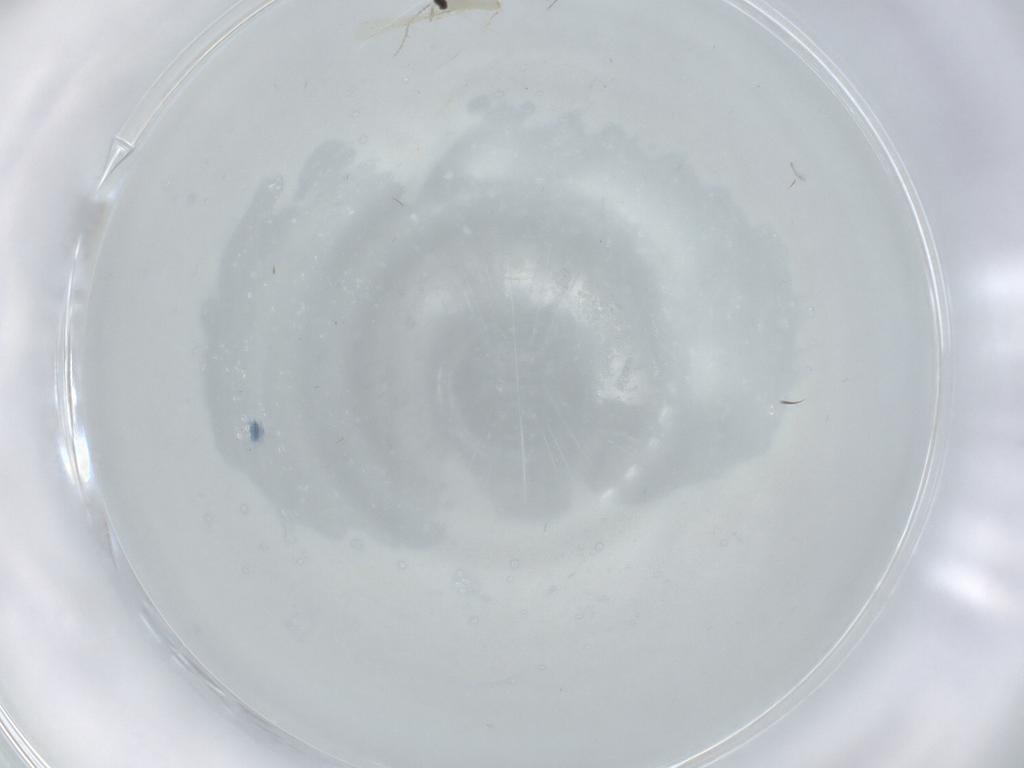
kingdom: Animalia
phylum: Arthropoda
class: Insecta
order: Diptera
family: Cecidomyiidae
